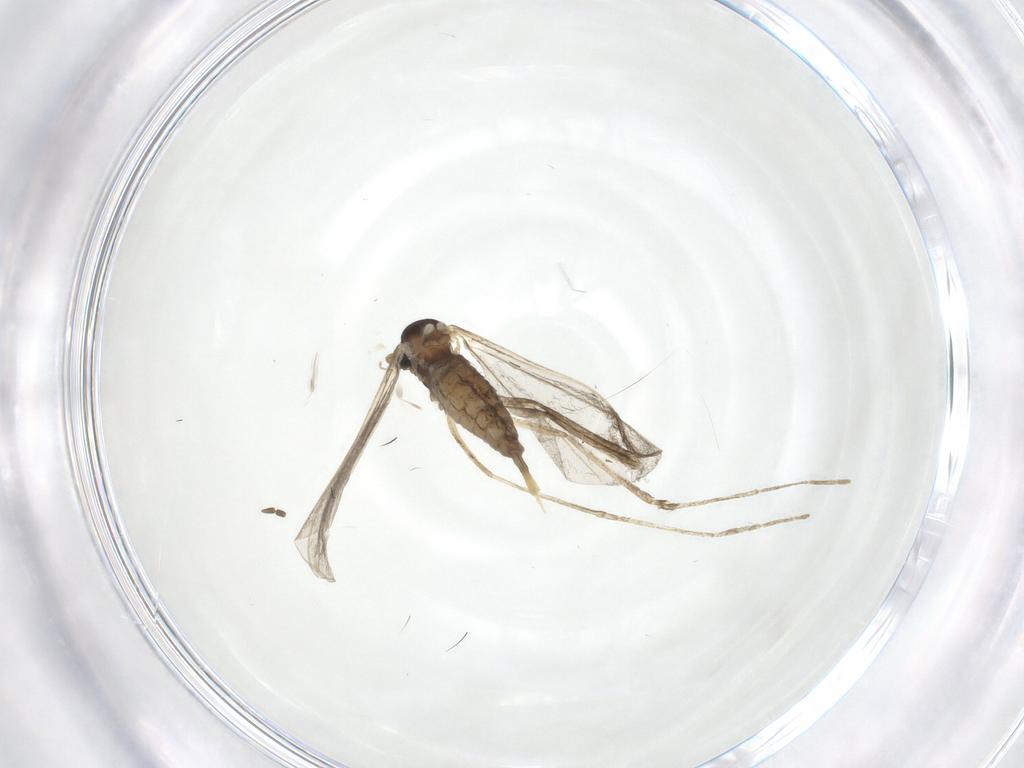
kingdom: Animalia
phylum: Arthropoda
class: Insecta
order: Diptera
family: Sciaridae
